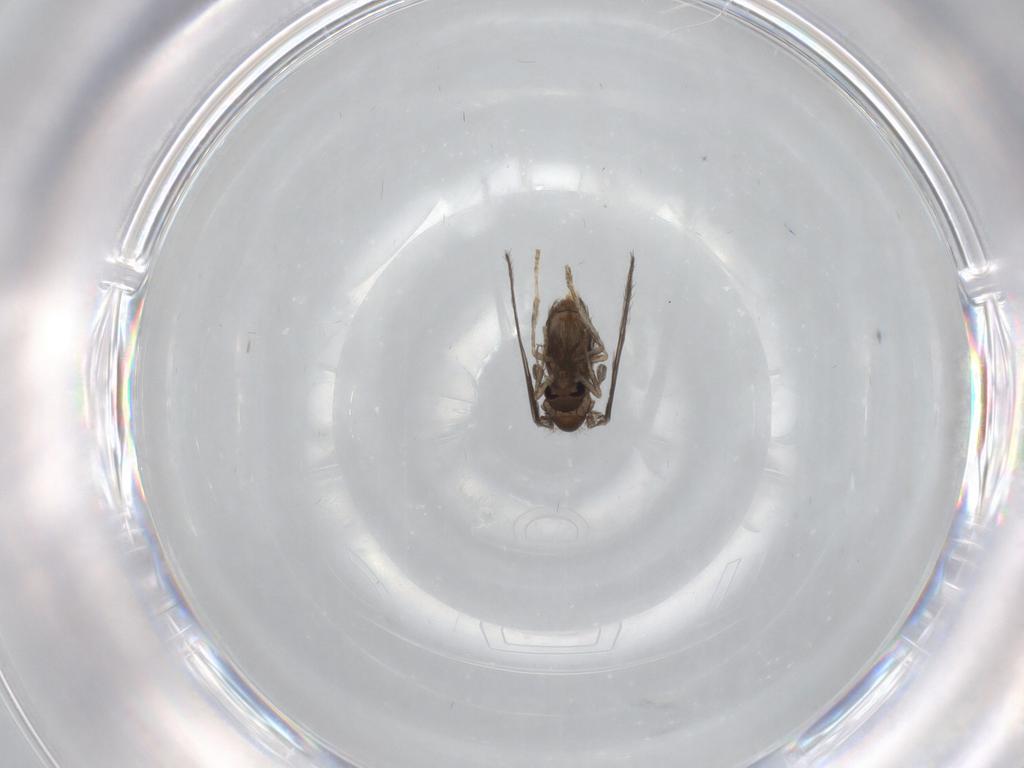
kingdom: Animalia
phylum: Arthropoda
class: Insecta
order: Diptera
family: Psychodidae
